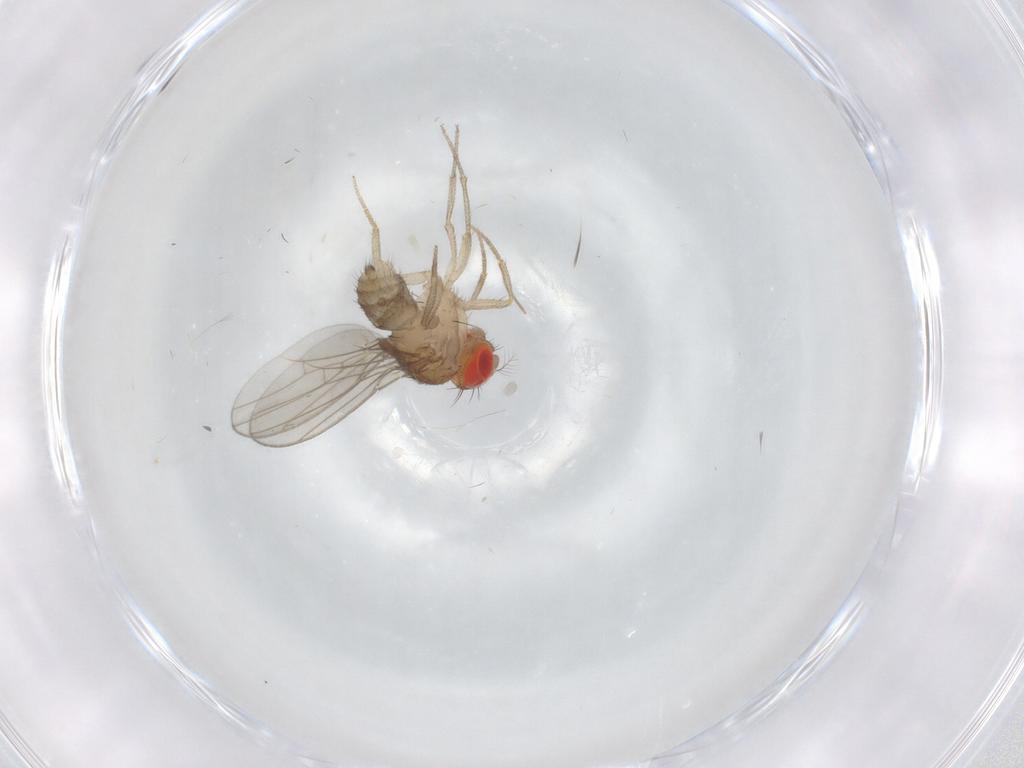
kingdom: Animalia
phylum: Arthropoda
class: Insecta
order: Diptera
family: Drosophilidae
